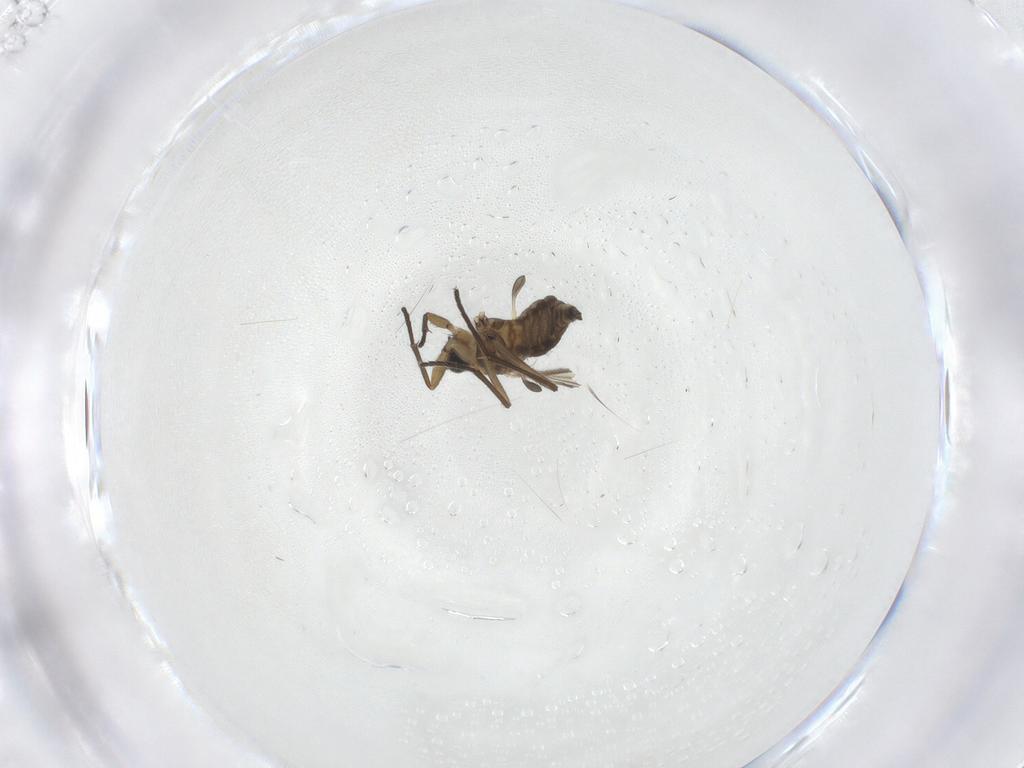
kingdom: Animalia
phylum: Arthropoda
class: Insecta
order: Diptera
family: Sciaridae
